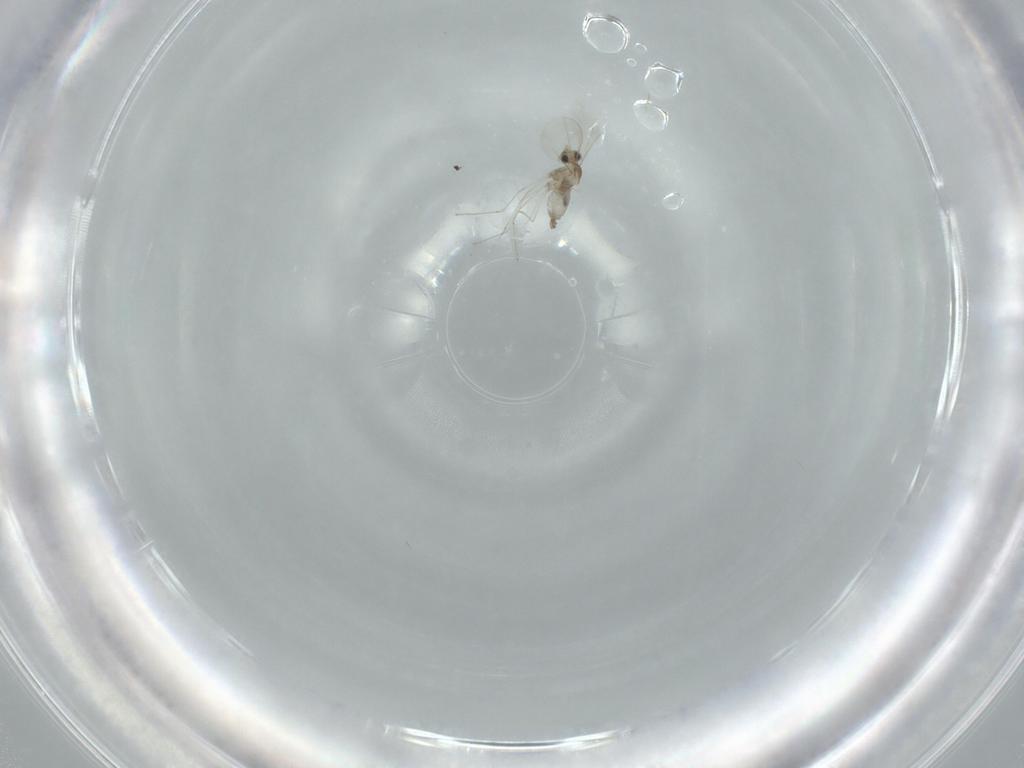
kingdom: Animalia
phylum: Arthropoda
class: Insecta
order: Diptera
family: Cecidomyiidae
